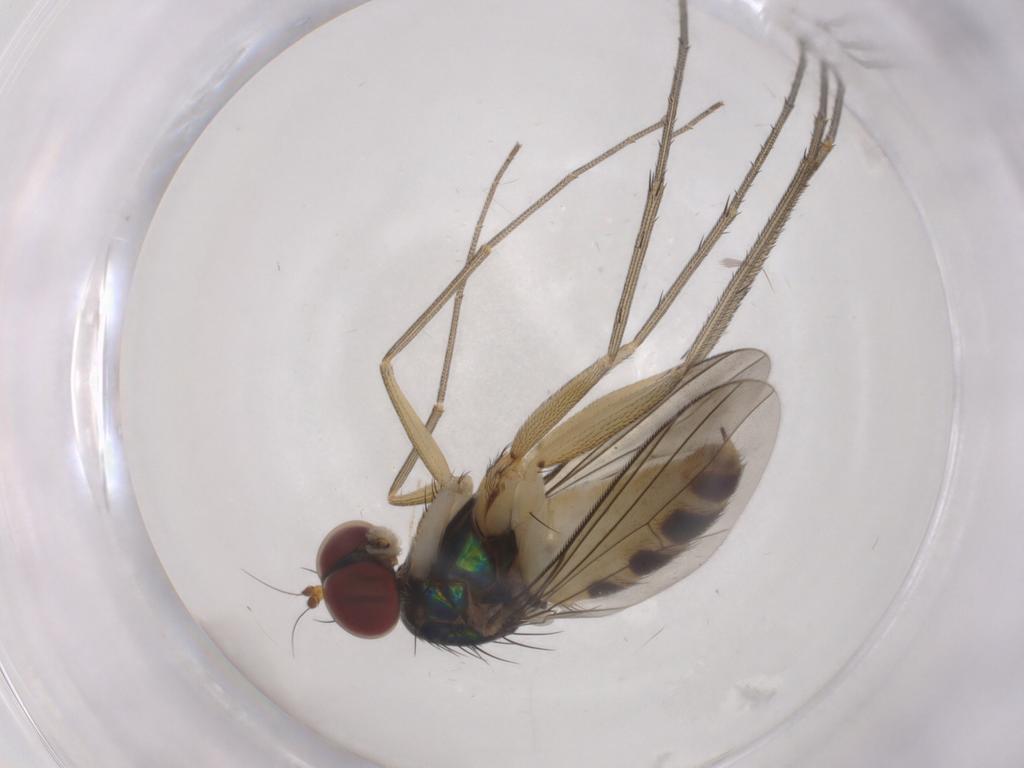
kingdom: Animalia
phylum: Arthropoda
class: Insecta
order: Diptera
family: Dolichopodidae
